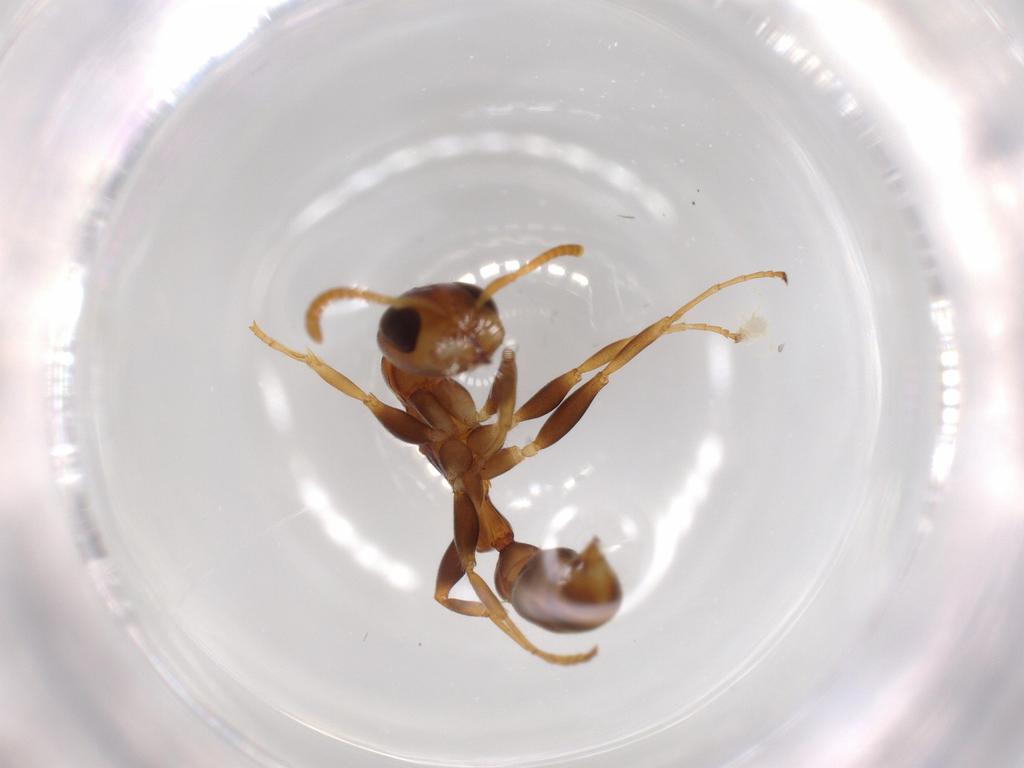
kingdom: Animalia
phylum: Arthropoda
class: Insecta
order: Hymenoptera
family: Formicidae
